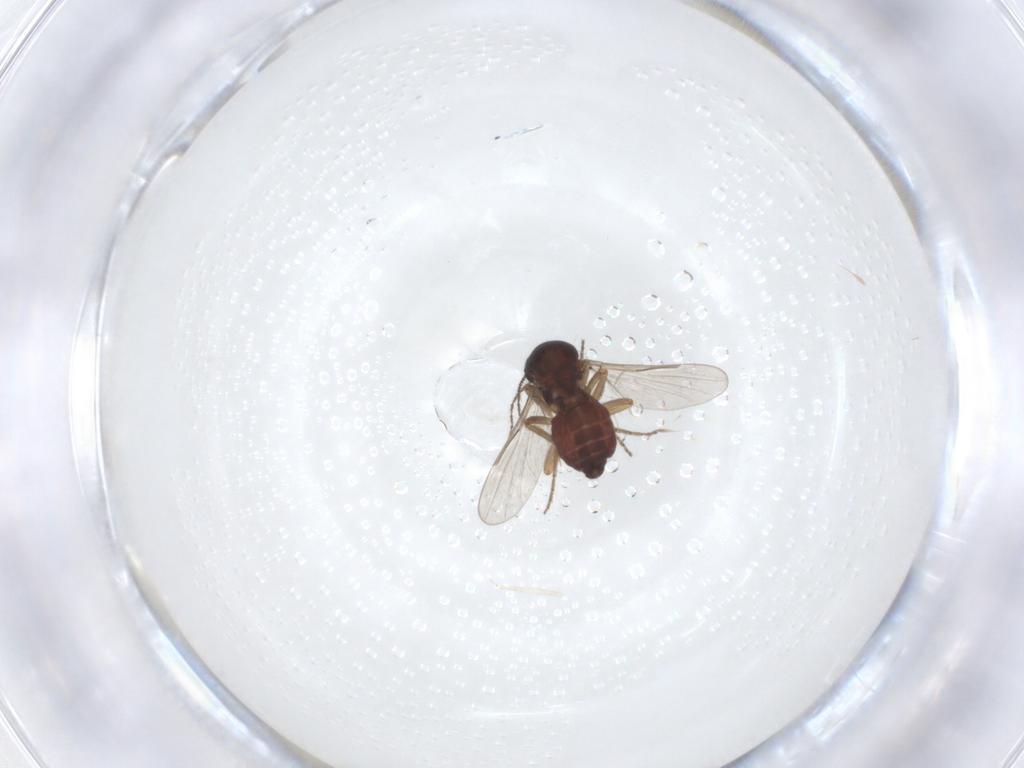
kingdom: Animalia
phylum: Arthropoda
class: Insecta
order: Diptera
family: Ceratopogonidae
